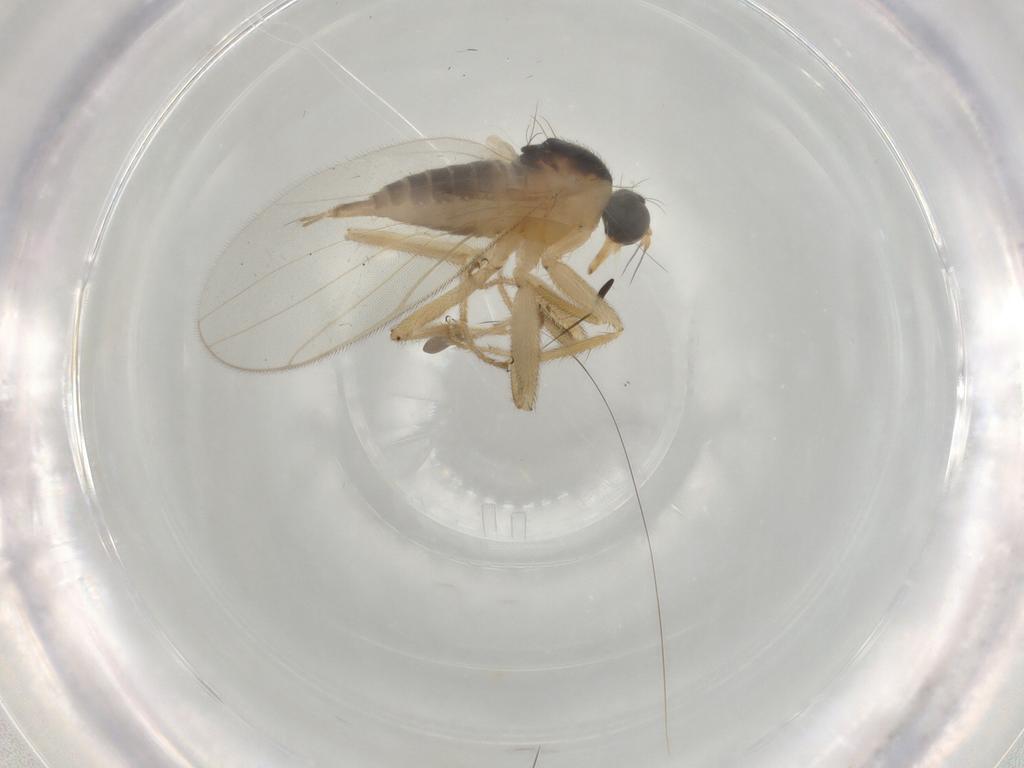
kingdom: Animalia
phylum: Arthropoda
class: Insecta
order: Diptera
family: Hybotidae
